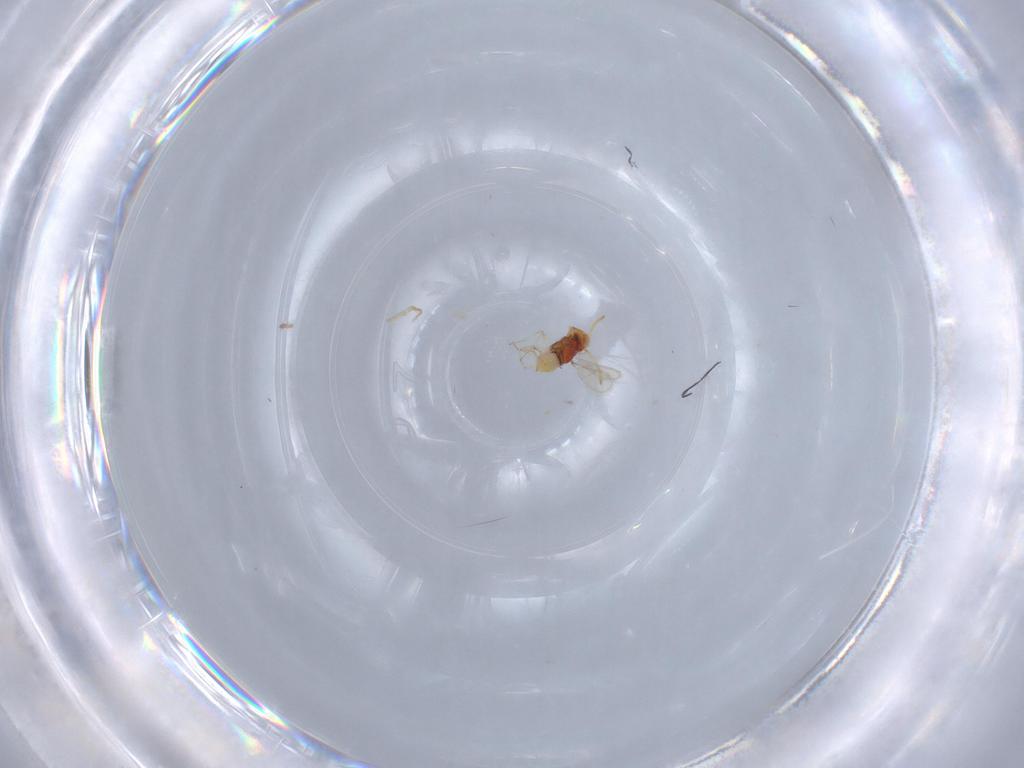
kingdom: Animalia
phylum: Arthropoda
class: Insecta
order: Hymenoptera
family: Aphelinidae
